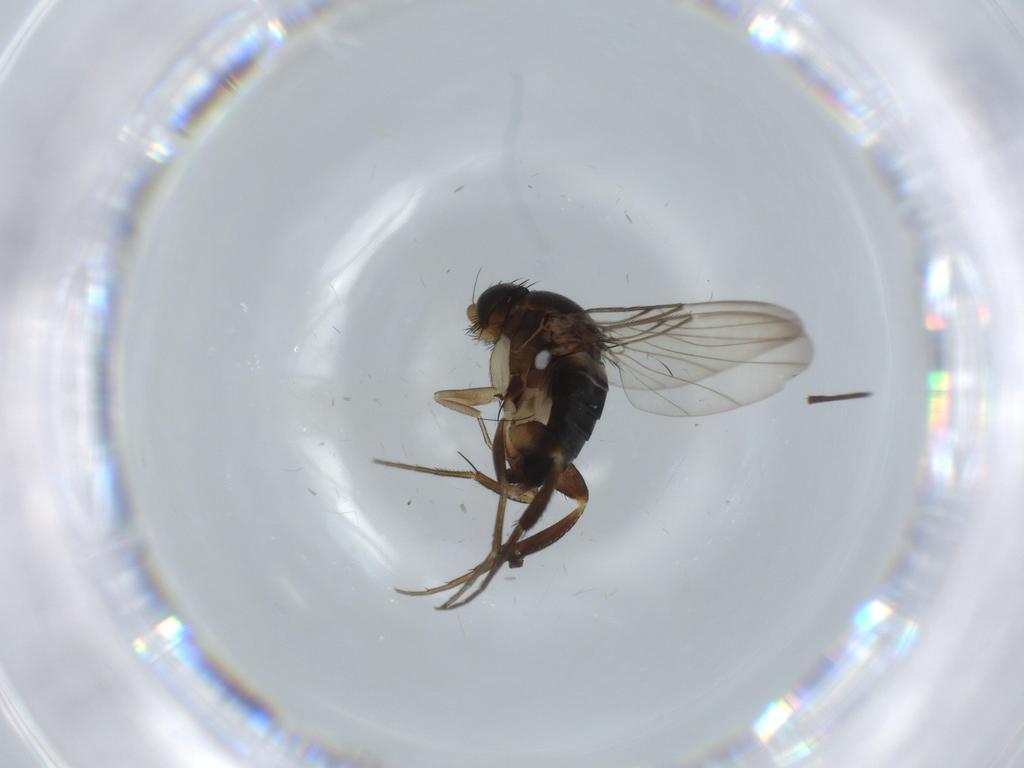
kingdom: Animalia
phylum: Arthropoda
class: Insecta
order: Diptera
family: Phoridae
